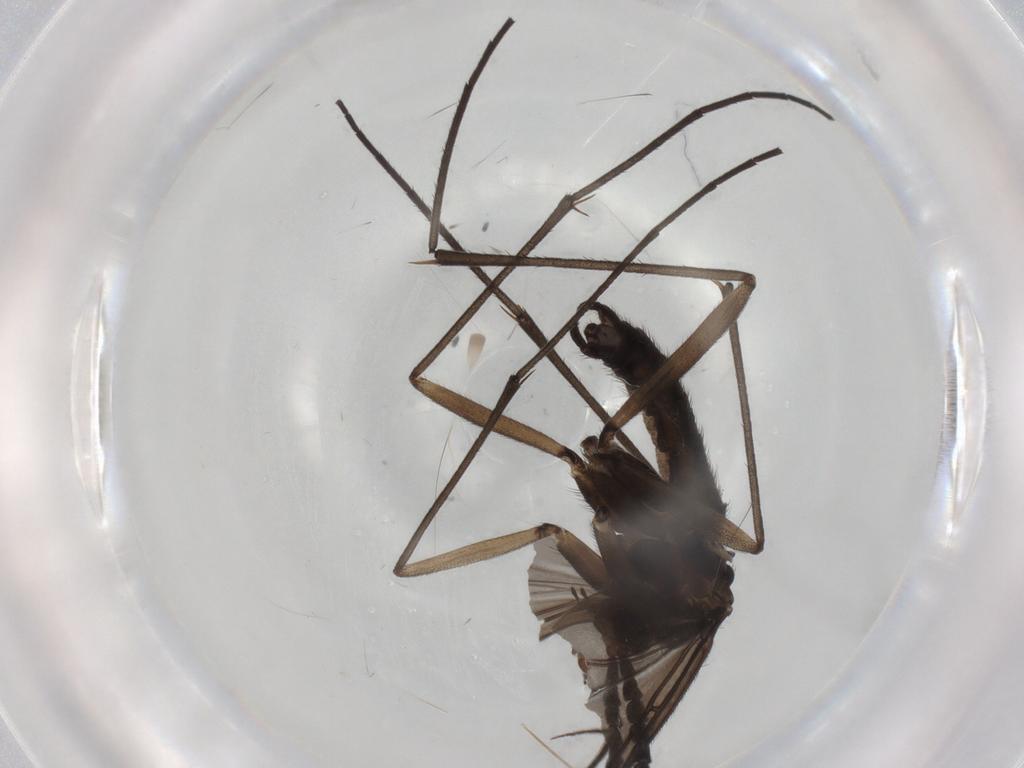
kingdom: Animalia
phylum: Arthropoda
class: Insecta
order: Diptera
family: Chironomidae
